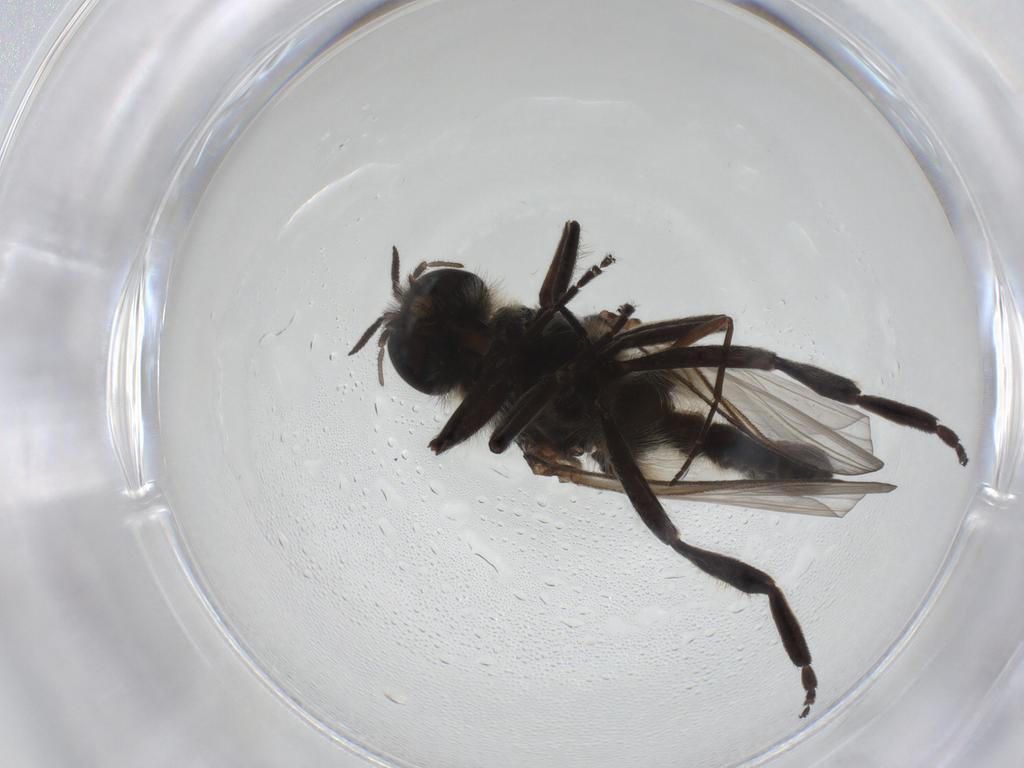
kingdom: Animalia
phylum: Arthropoda
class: Insecta
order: Diptera
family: Simuliidae
